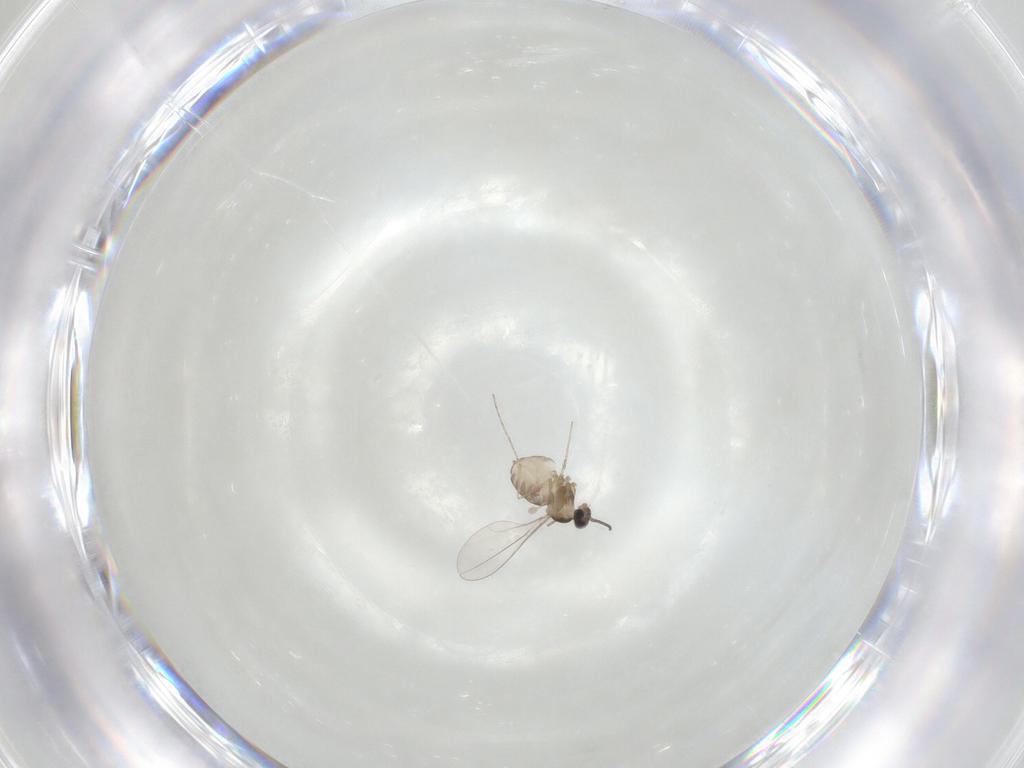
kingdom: Animalia
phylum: Arthropoda
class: Insecta
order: Diptera
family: Cecidomyiidae
